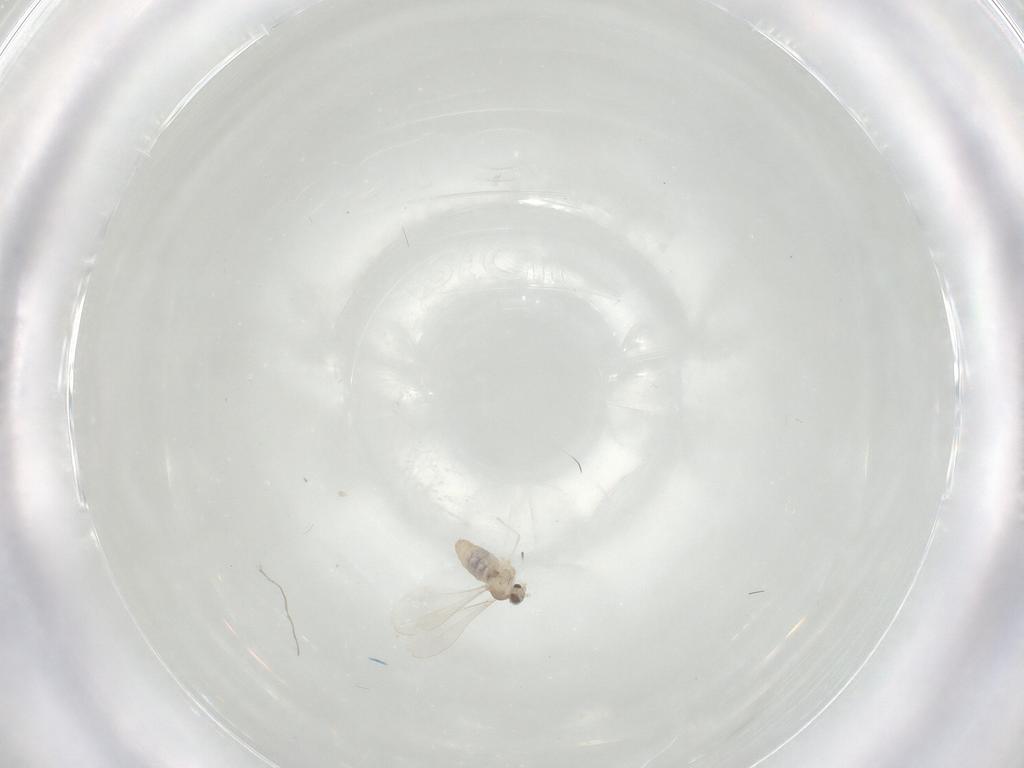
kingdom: Animalia
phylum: Arthropoda
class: Insecta
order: Diptera
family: Cecidomyiidae
